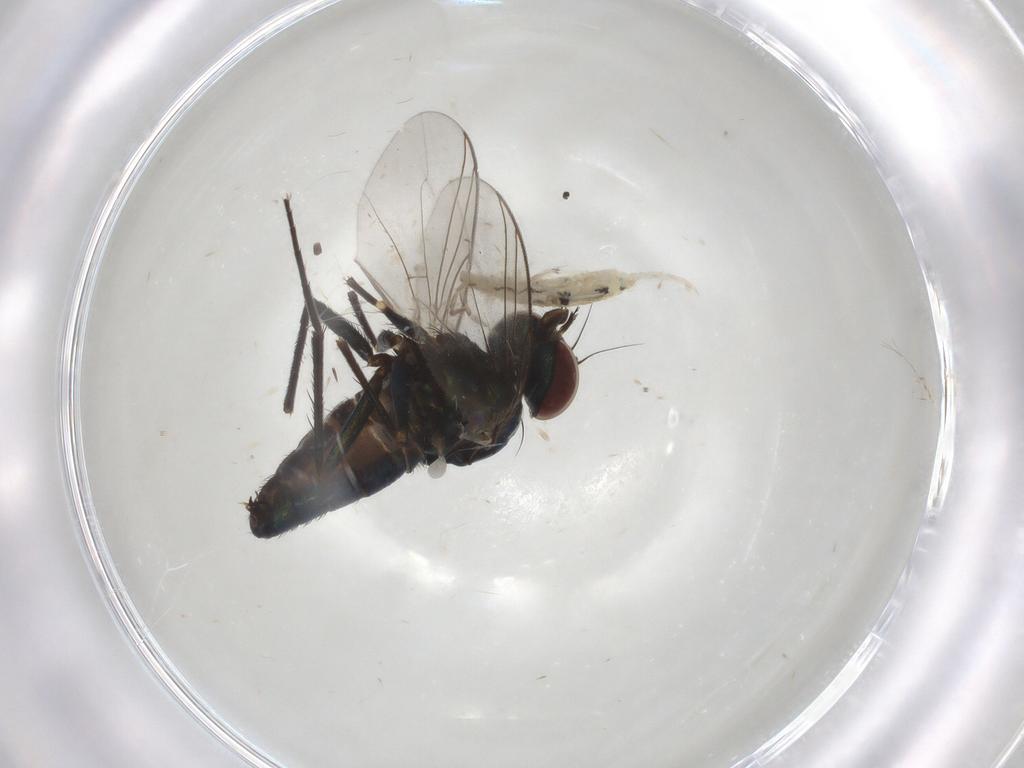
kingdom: Animalia
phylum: Arthropoda
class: Insecta
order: Diptera
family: Dolichopodidae
